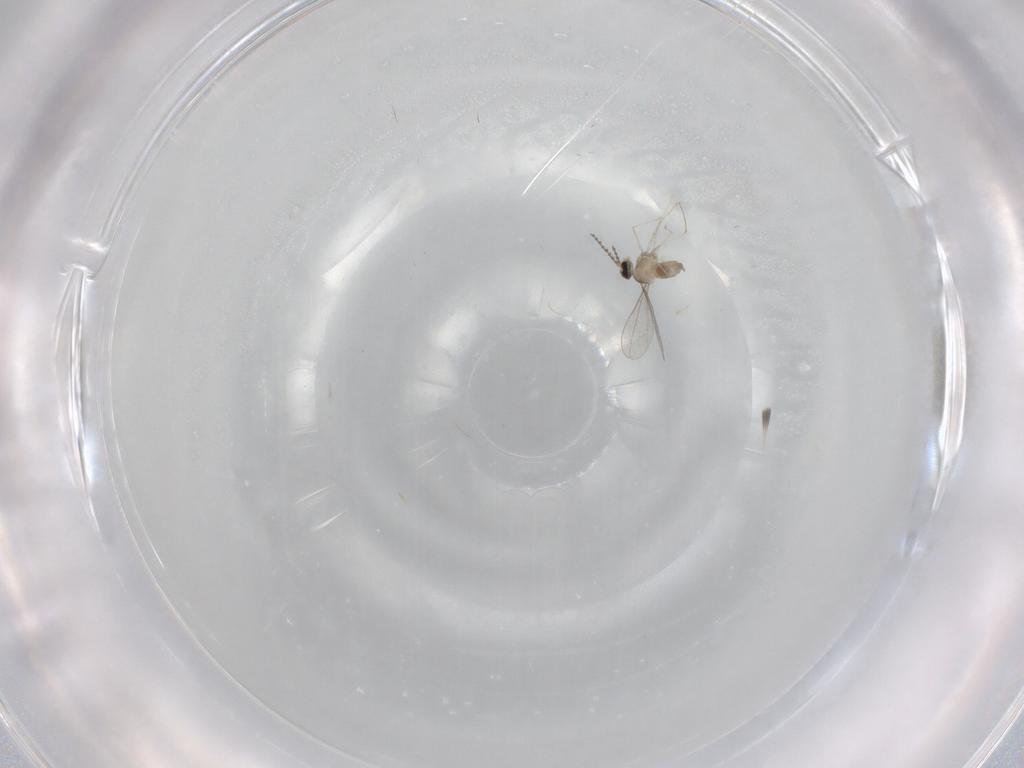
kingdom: Animalia
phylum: Arthropoda
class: Insecta
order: Diptera
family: Cecidomyiidae
